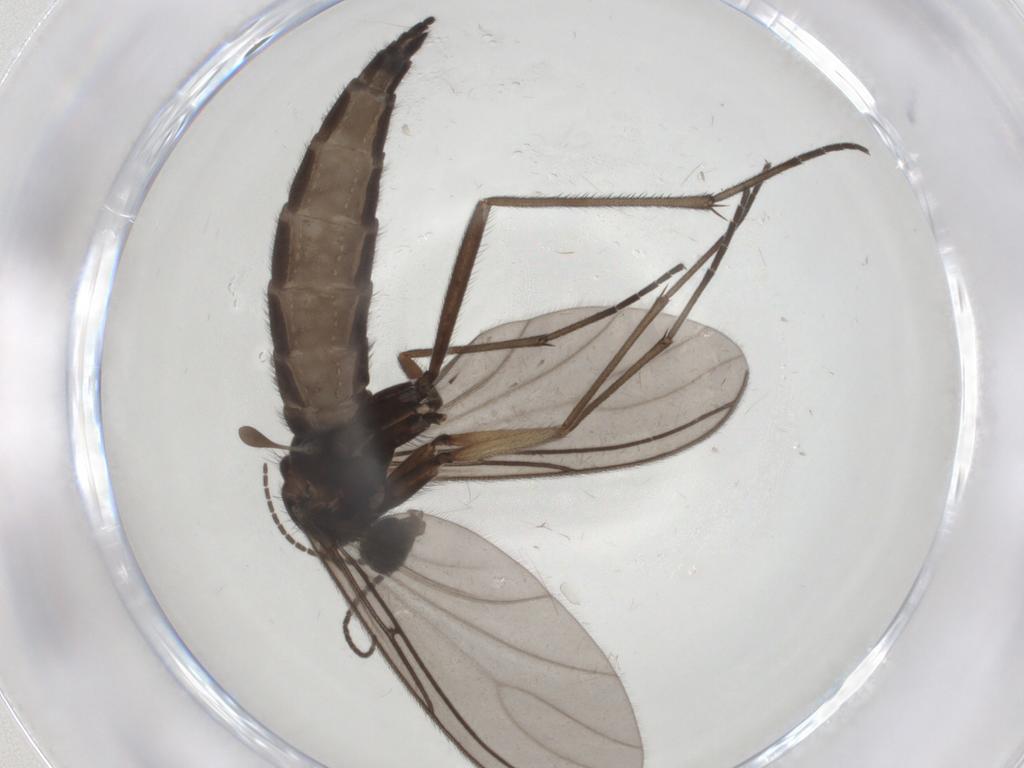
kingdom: Animalia
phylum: Arthropoda
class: Insecta
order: Diptera
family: Sciaridae
